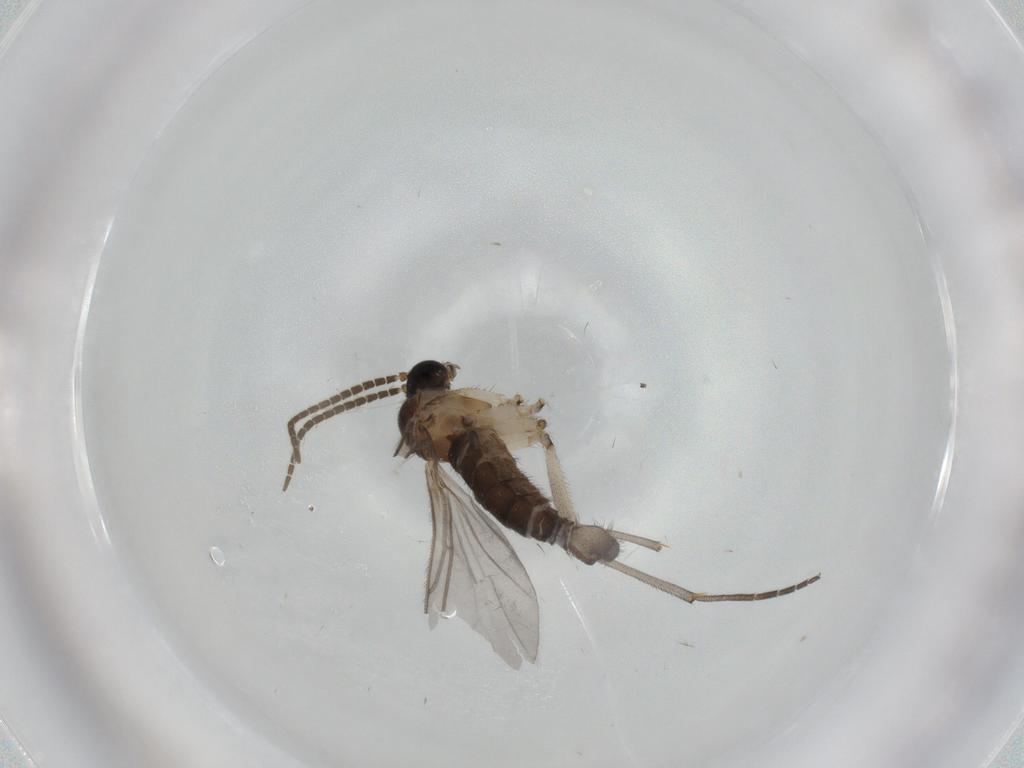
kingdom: Animalia
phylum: Arthropoda
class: Insecta
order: Diptera
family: Sciaridae
